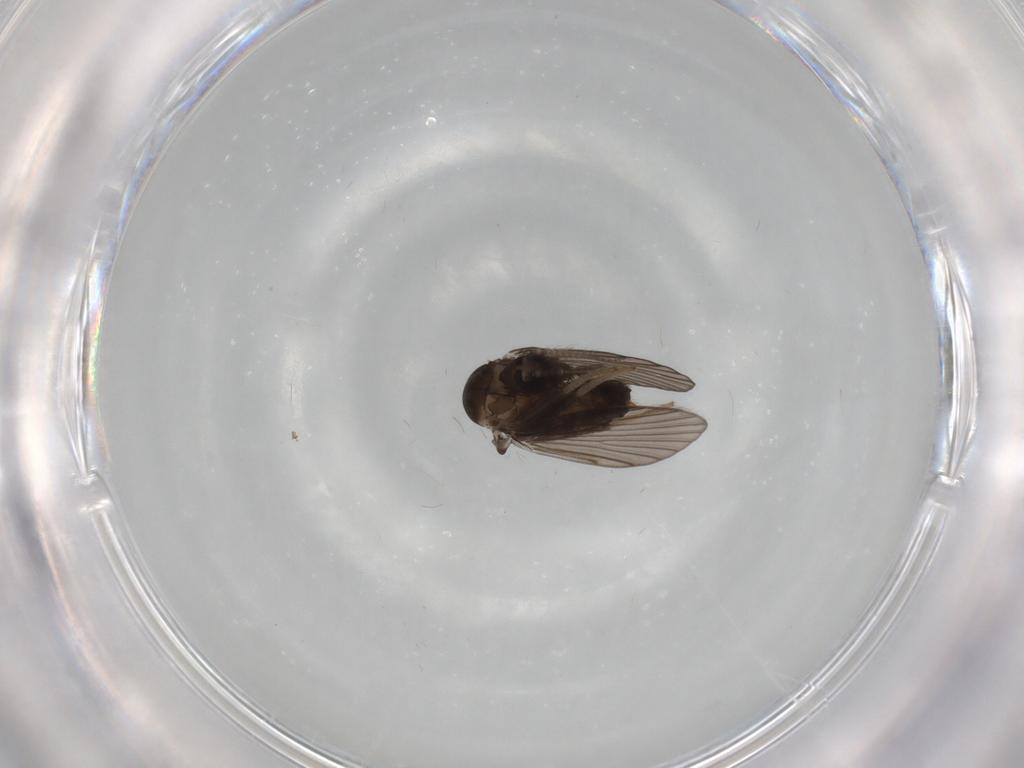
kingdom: Animalia
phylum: Arthropoda
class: Insecta
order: Diptera
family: Psychodidae
